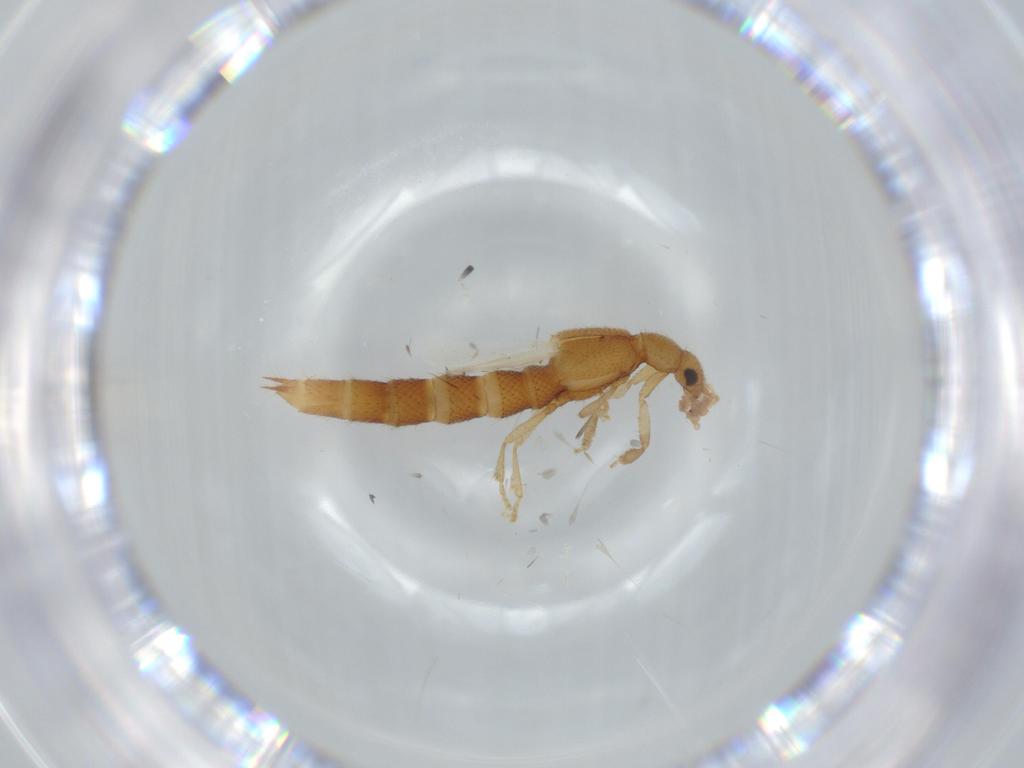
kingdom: Animalia
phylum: Arthropoda
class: Insecta
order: Coleoptera
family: Staphylinidae
